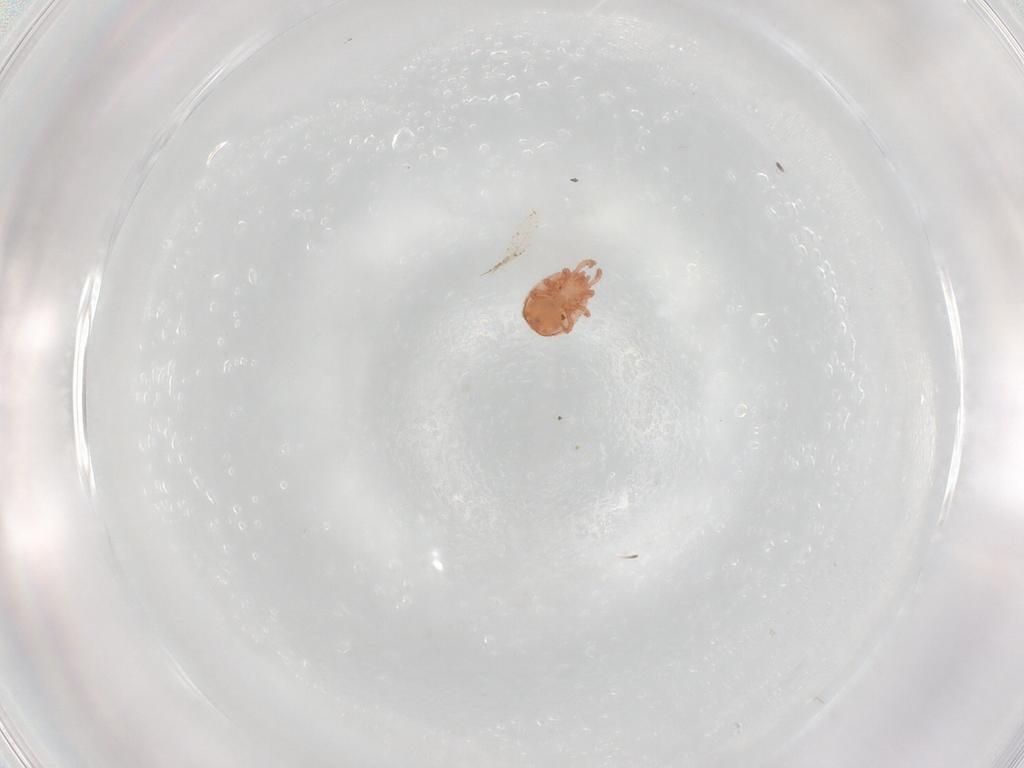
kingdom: Animalia
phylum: Arthropoda
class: Arachnida
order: Mesostigmata
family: Zerconidae
